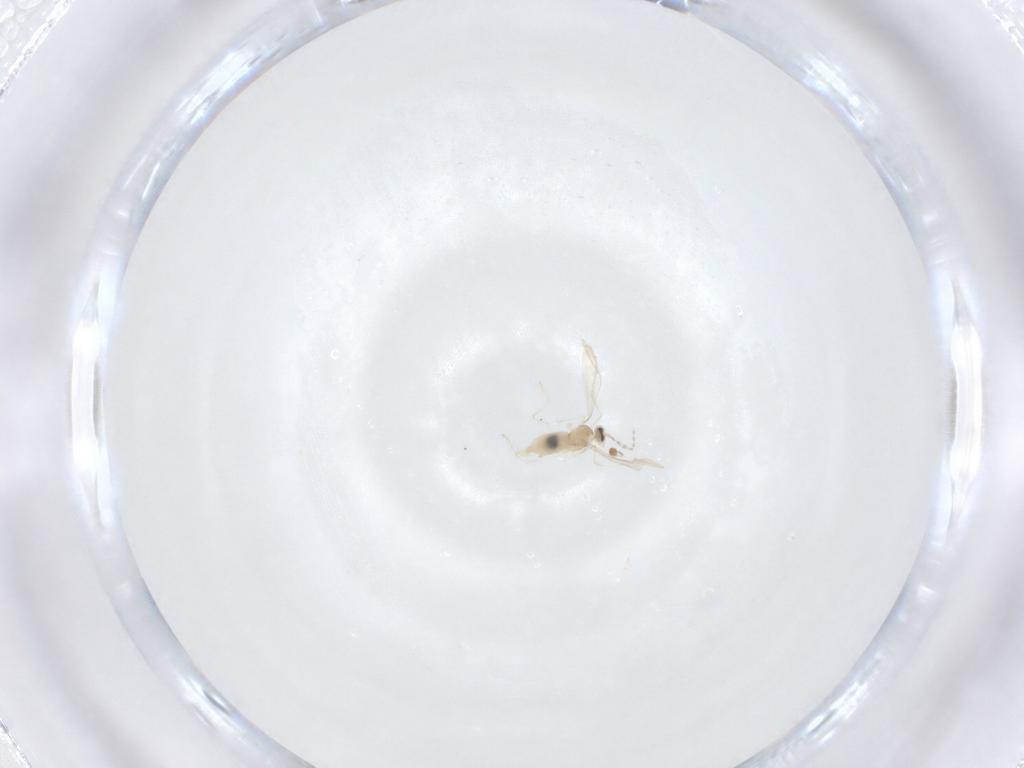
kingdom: Animalia
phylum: Arthropoda
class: Insecta
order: Diptera
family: Cecidomyiidae
